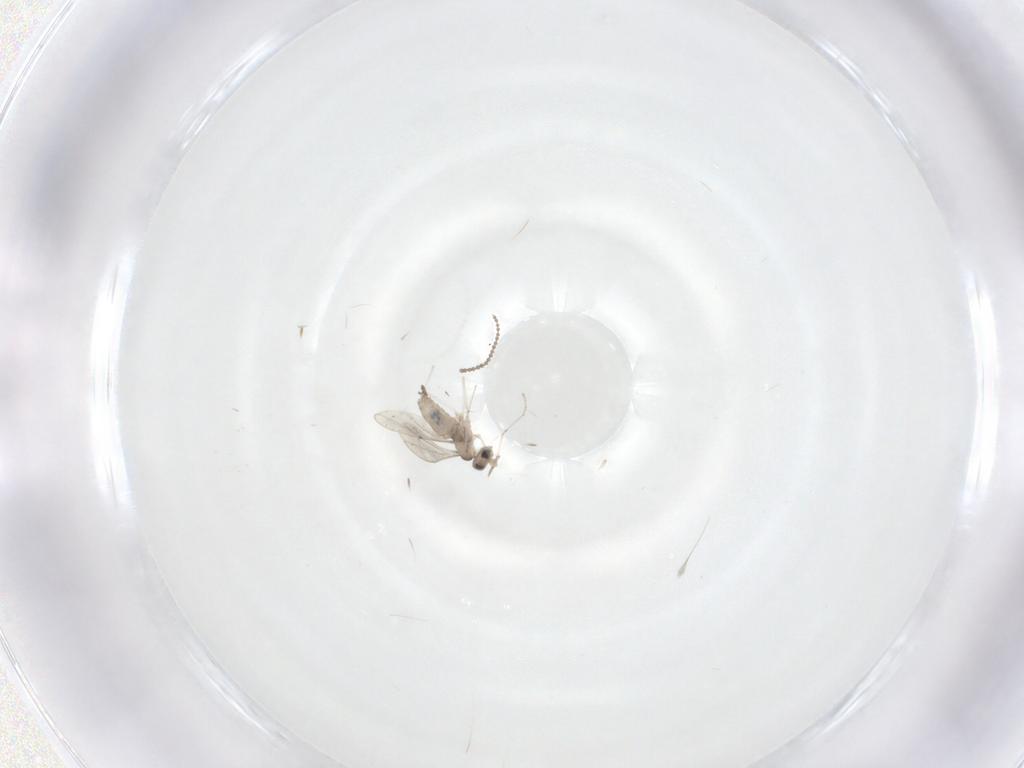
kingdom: Animalia
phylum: Arthropoda
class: Insecta
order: Diptera
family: Cecidomyiidae
